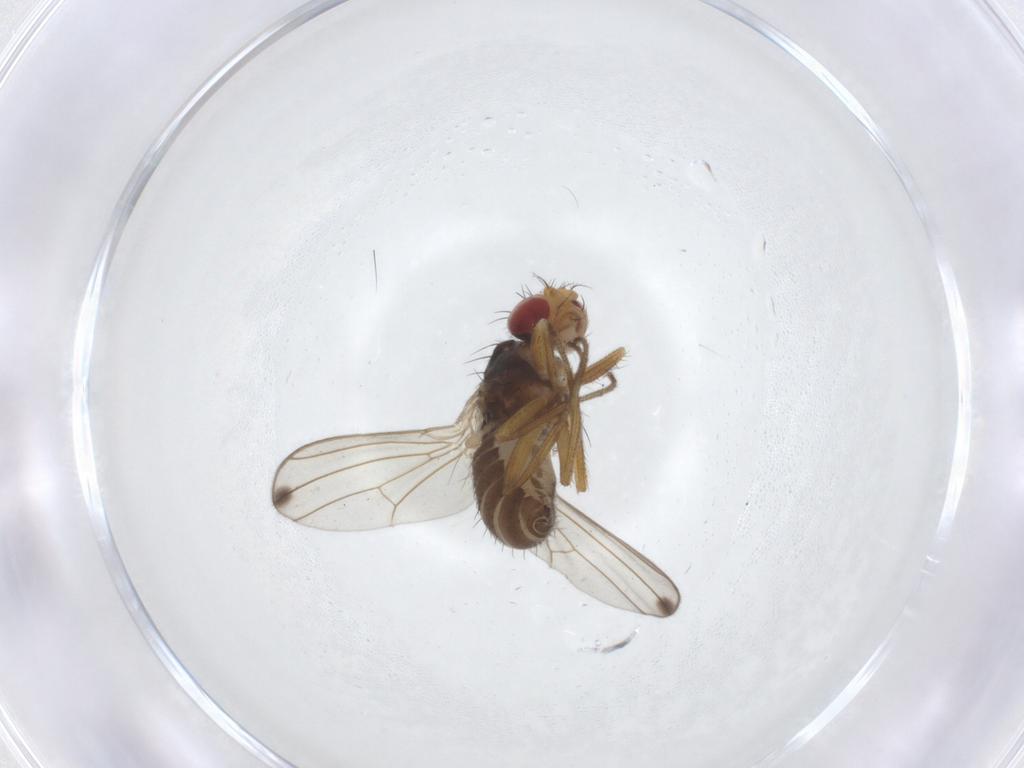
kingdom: Animalia
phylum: Arthropoda
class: Insecta
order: Diptera
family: Drosophilidae
